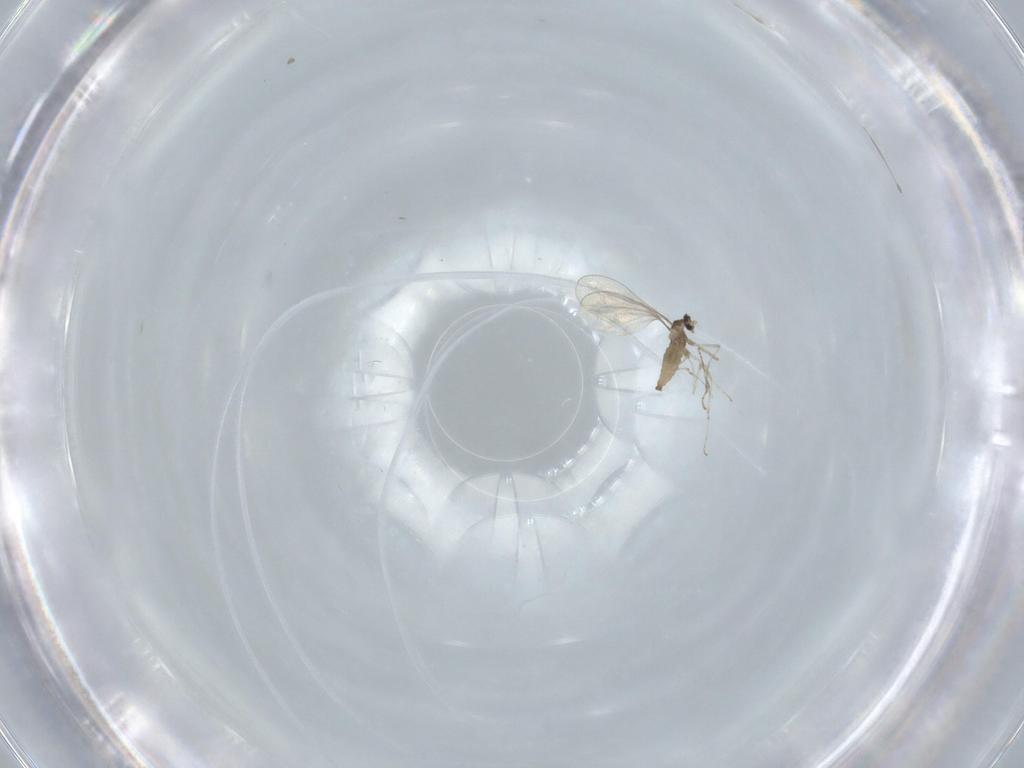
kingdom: Animalia
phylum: Arthropoda
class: Insecta
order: Diptera
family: Cecidomyiidae
